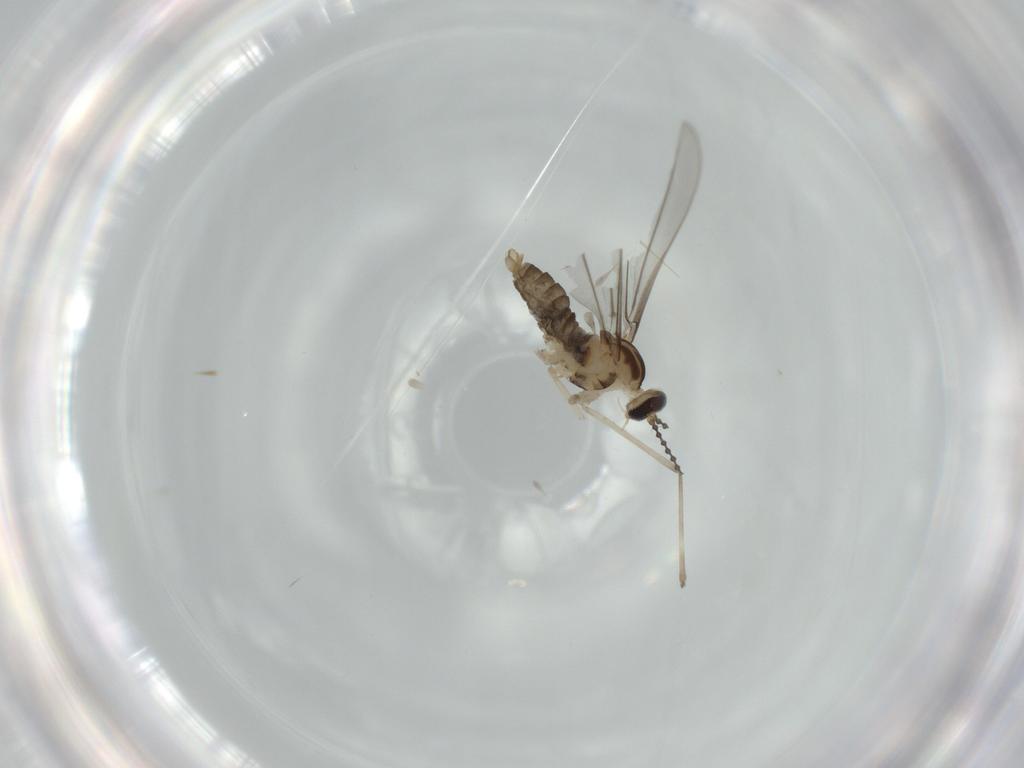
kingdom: Animalia
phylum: Arthropoda
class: Insecta
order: Diptera
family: Cecidomyiidae
